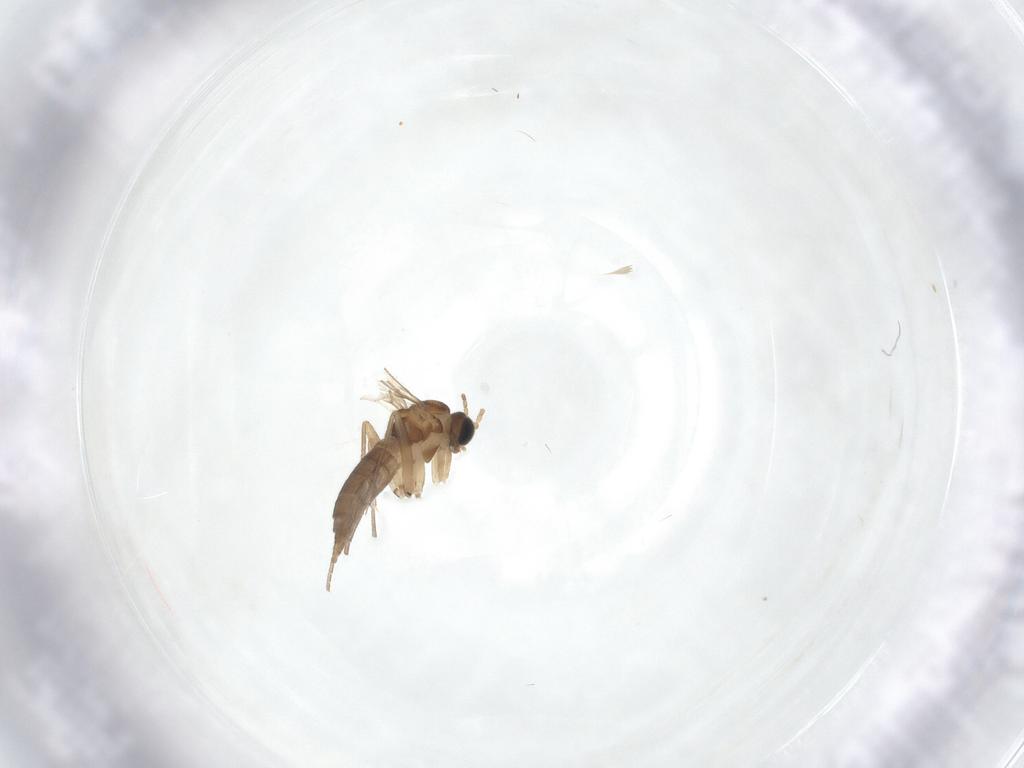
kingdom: Animalia
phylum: Arthropoda
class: Insecta
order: Diptera
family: Sciaridae
